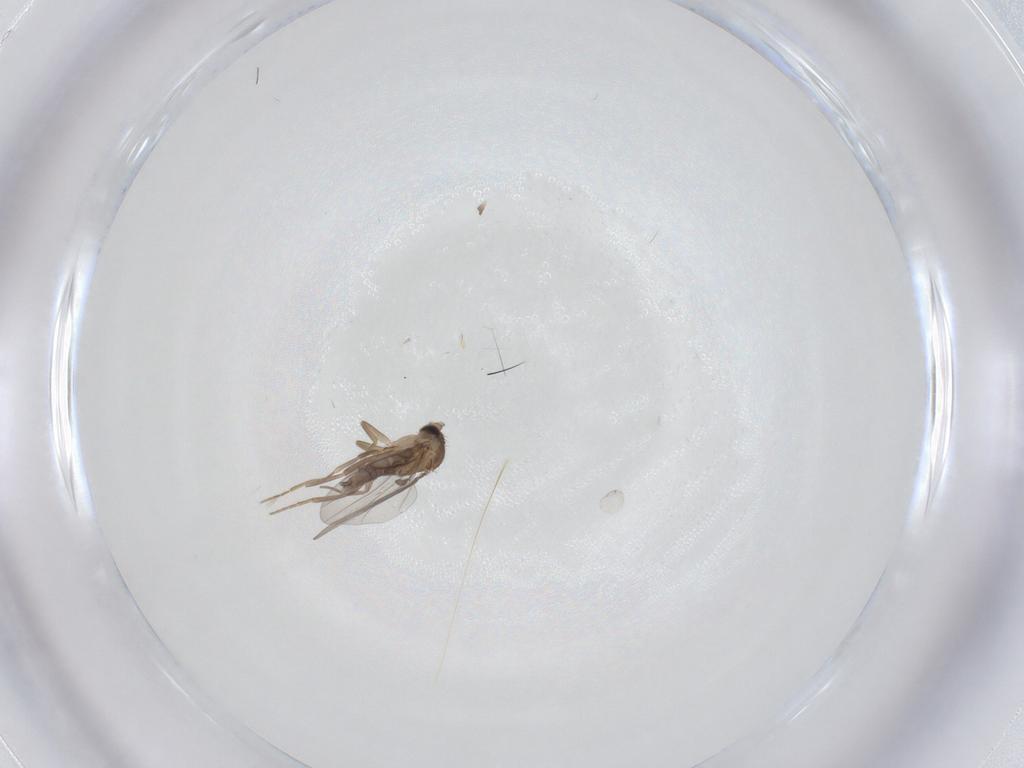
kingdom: Animalia
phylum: Arthropoda
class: Insecta
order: Diptera
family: Phoridae
